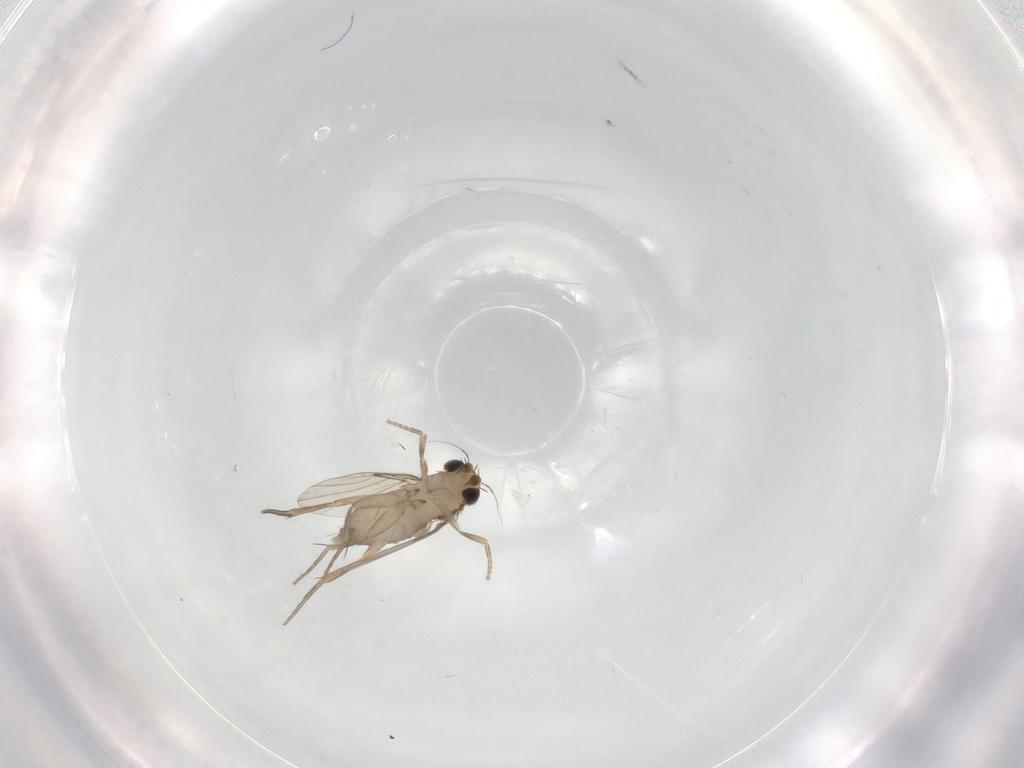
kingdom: Animalia
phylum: Arthropoda
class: Insecta
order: Diptera
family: Phoridae
